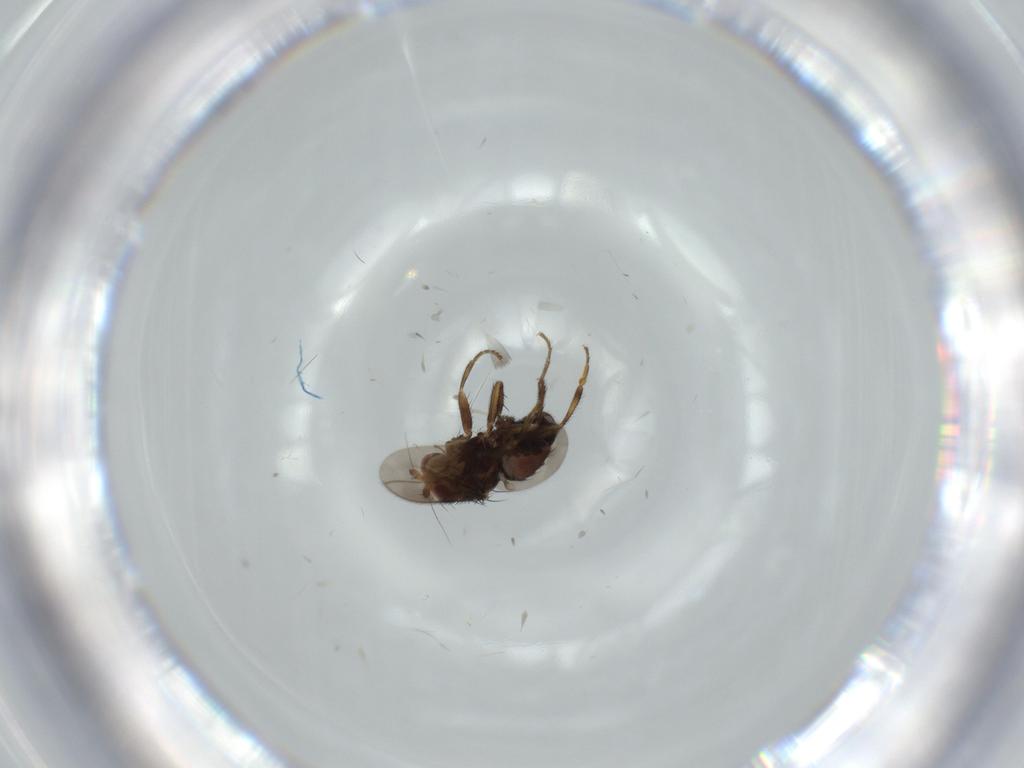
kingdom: Animalia
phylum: Arthropoda
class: Insecta
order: Diptera
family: Sphaeroceridae
